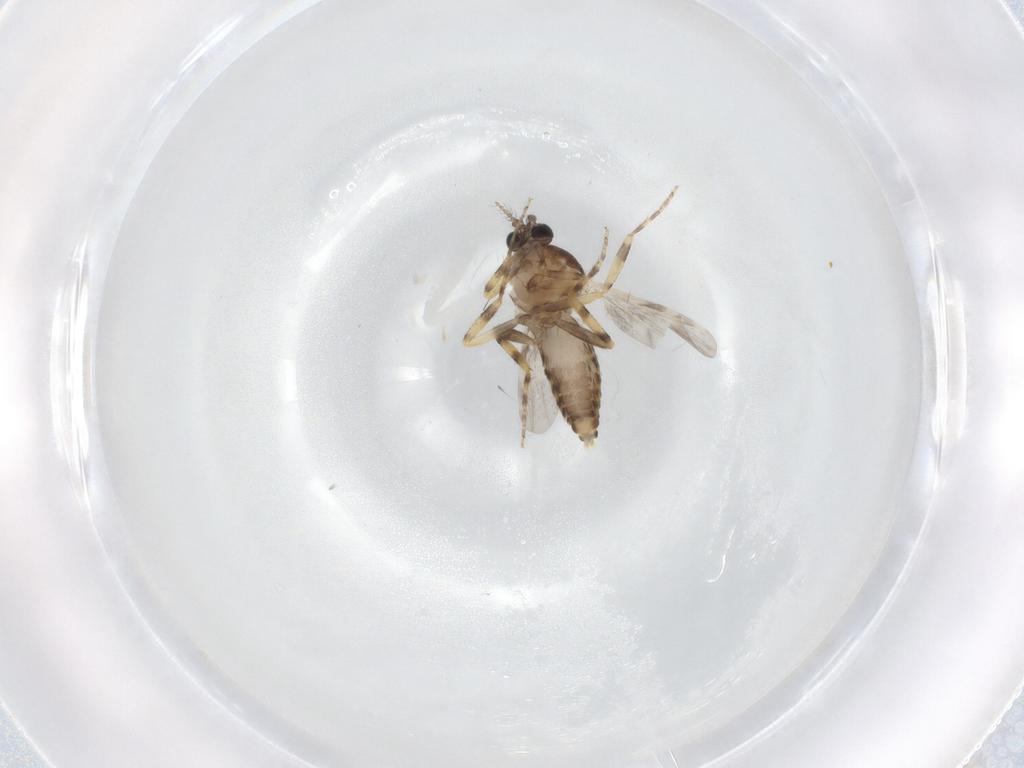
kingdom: Animalia
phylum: Arthropoda
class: Insecta
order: Diptera
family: Ceratopogonidae
